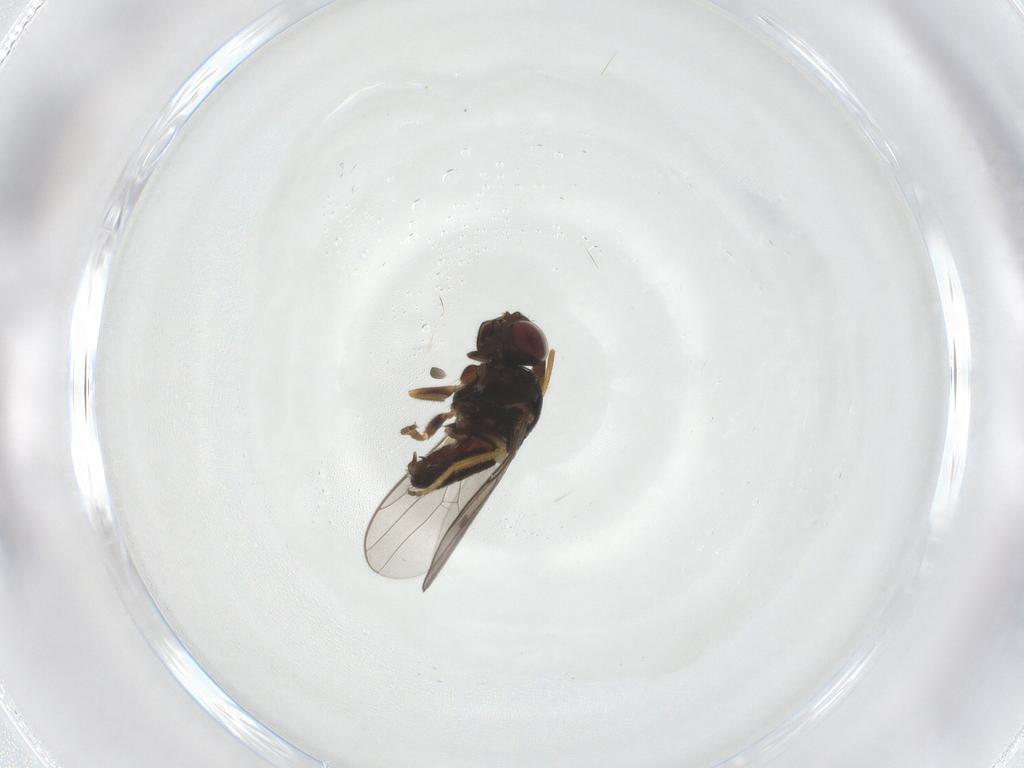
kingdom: Animalia
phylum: Arthropoda
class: Insecta
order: Diptera
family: Chloropidae
